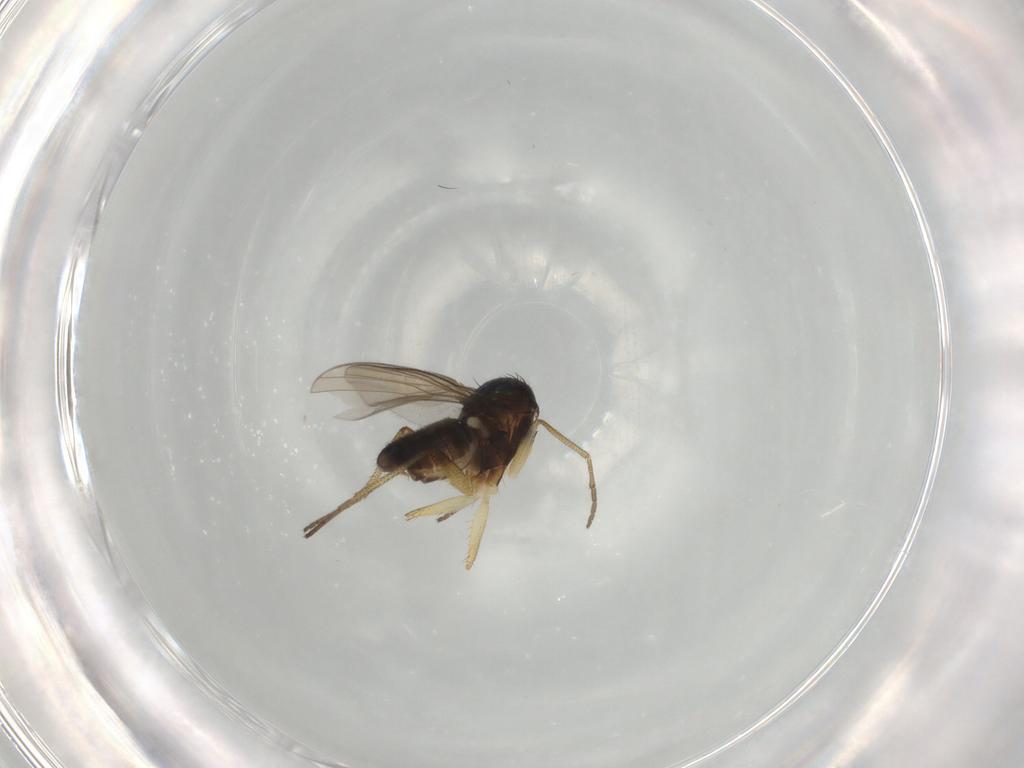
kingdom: Animalia
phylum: Arthropoda
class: Insecta
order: Diptera
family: Dolichopodidae
